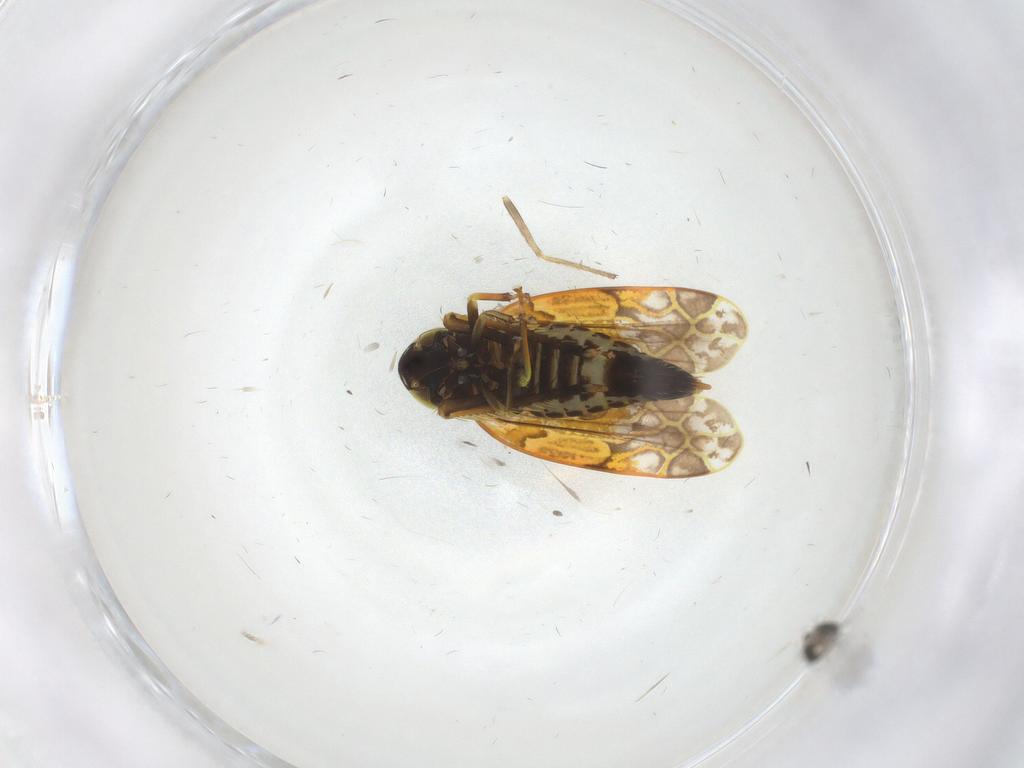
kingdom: Animalia
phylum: Arthropoda
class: Insecta
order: Hemiptera
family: Cicadellidae
